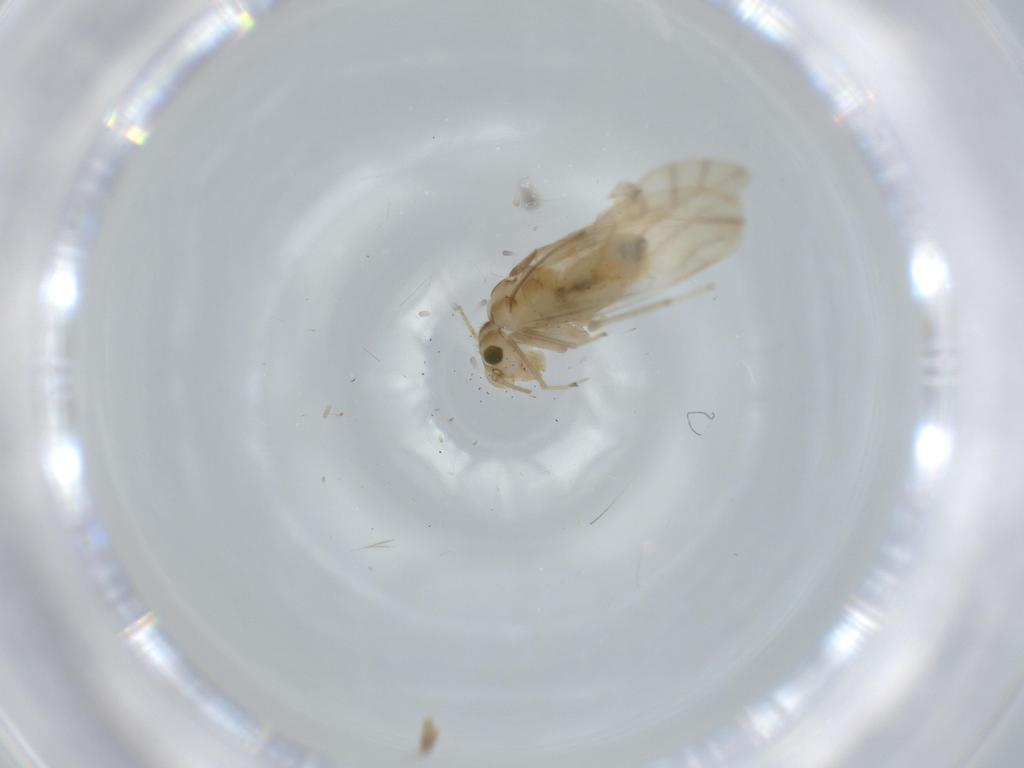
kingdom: Animalia
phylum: Arthropoda
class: Insecta
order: Psocodea
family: Caeciliusidae
